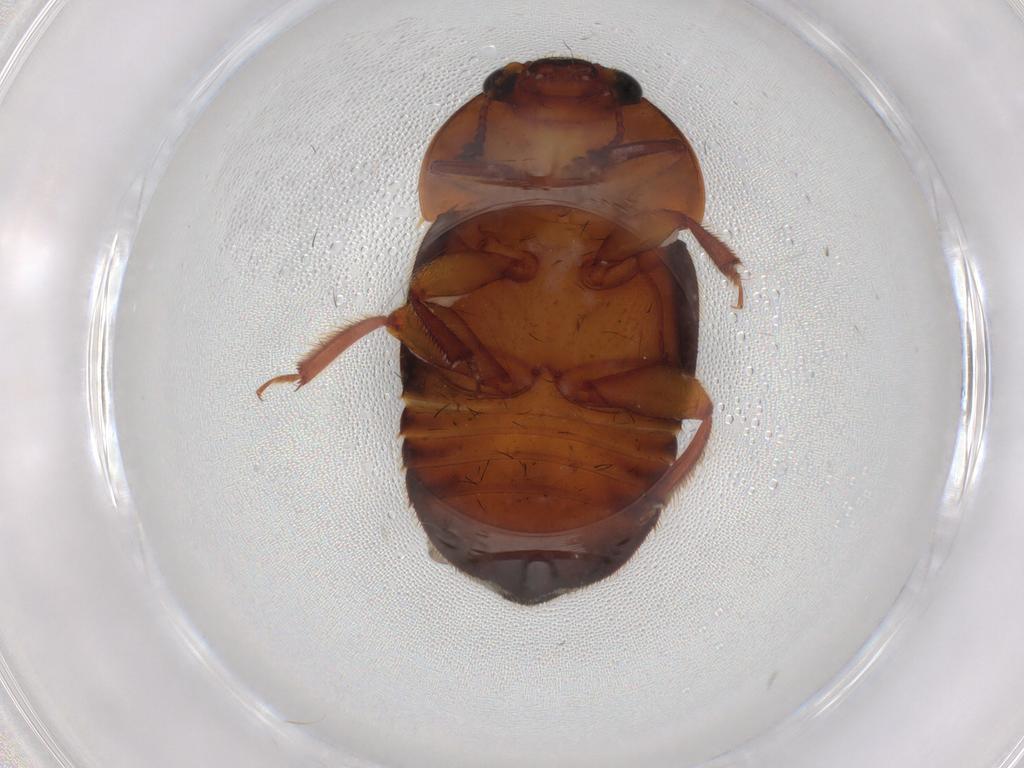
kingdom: Animalia
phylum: Arthropoda
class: Insecta
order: Coleoptera
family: Nitidulidae
